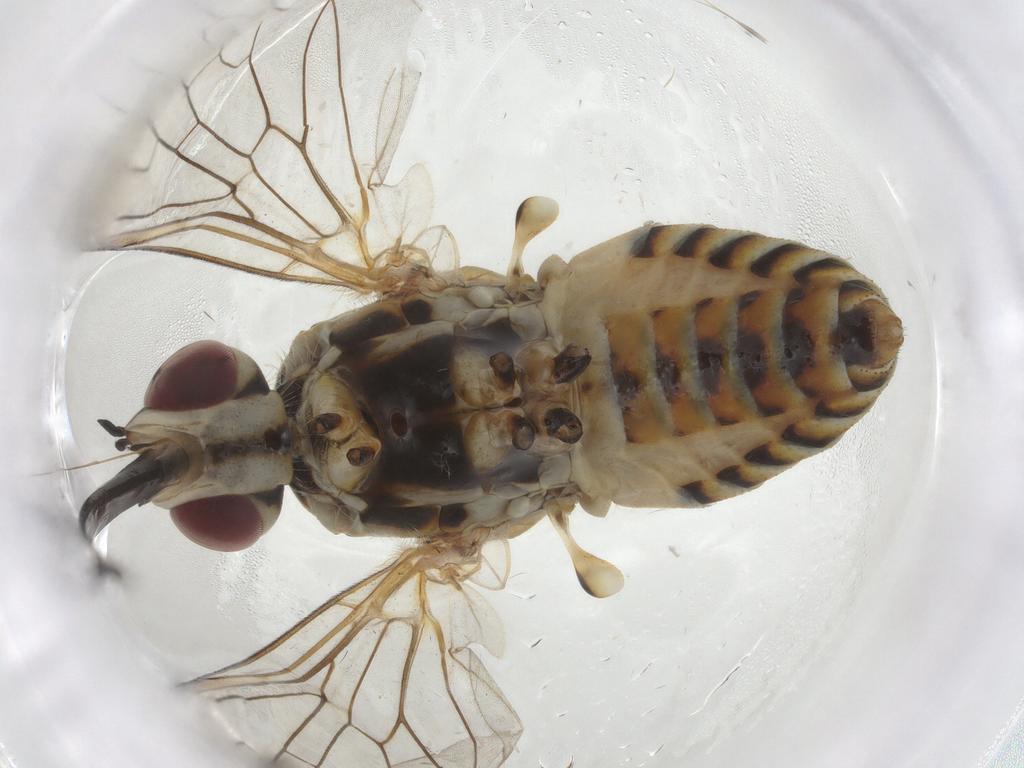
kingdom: Animalia
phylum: Arthropoda
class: Insecta
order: Diptera
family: Bombyliidae
